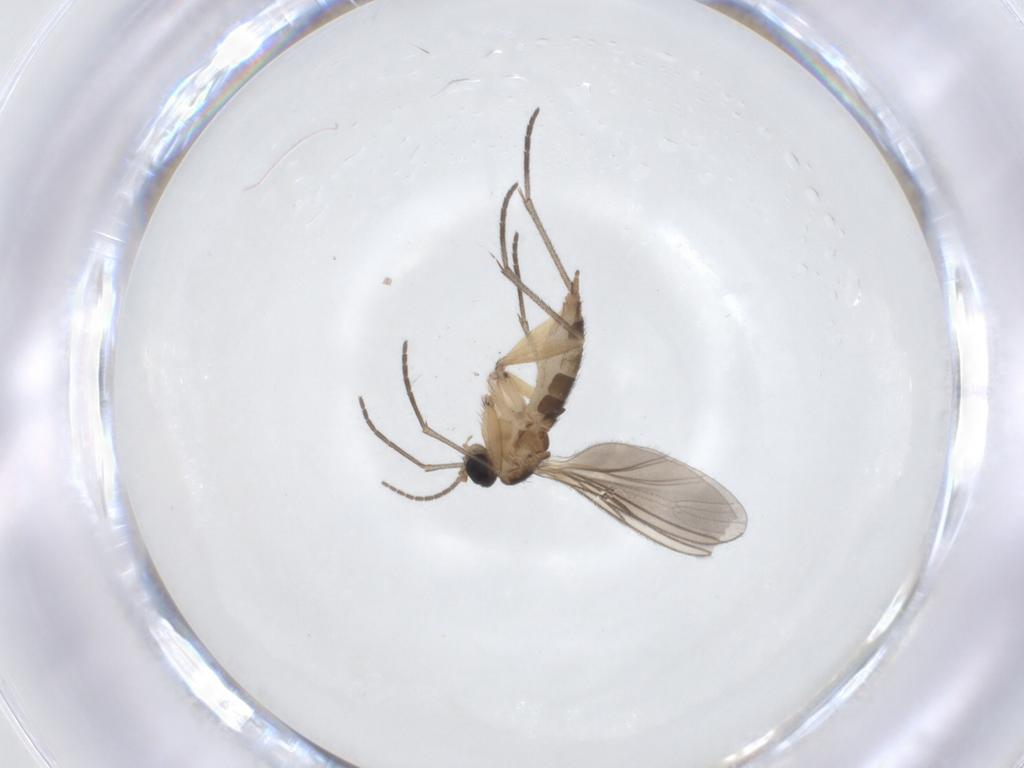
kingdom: Animalia
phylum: Arthropoda
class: Insecta
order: Diptera
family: Sciaridae
